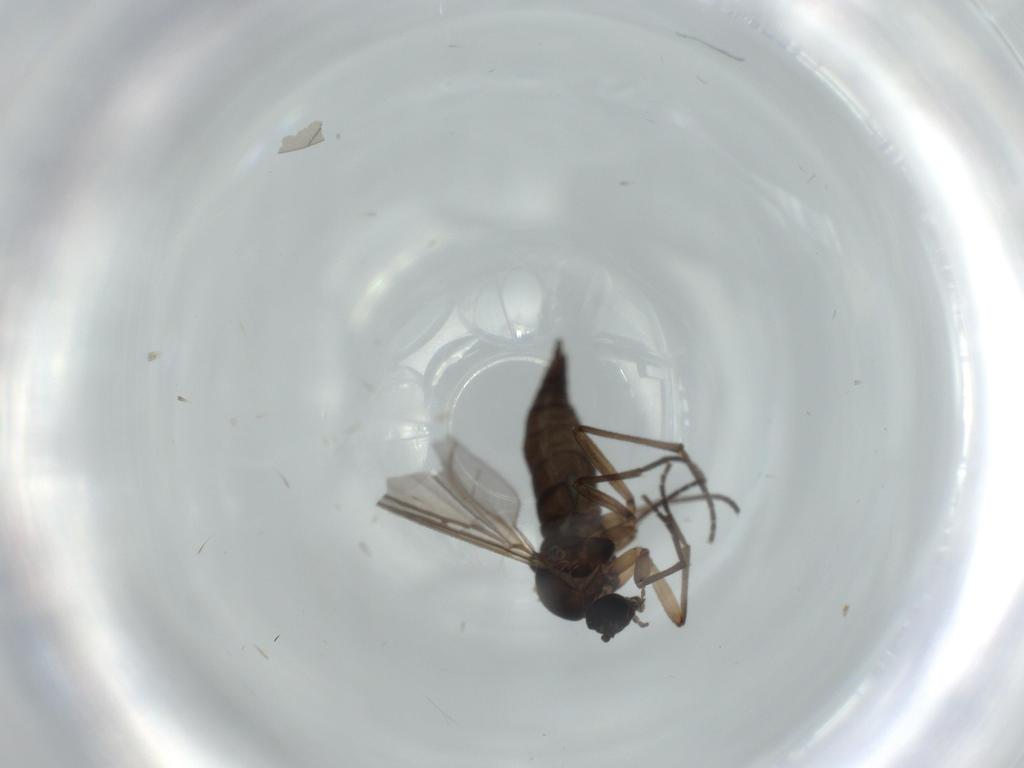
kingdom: Animalia
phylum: Arthropoda
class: Insecta
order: Diptera
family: Sciaridae
